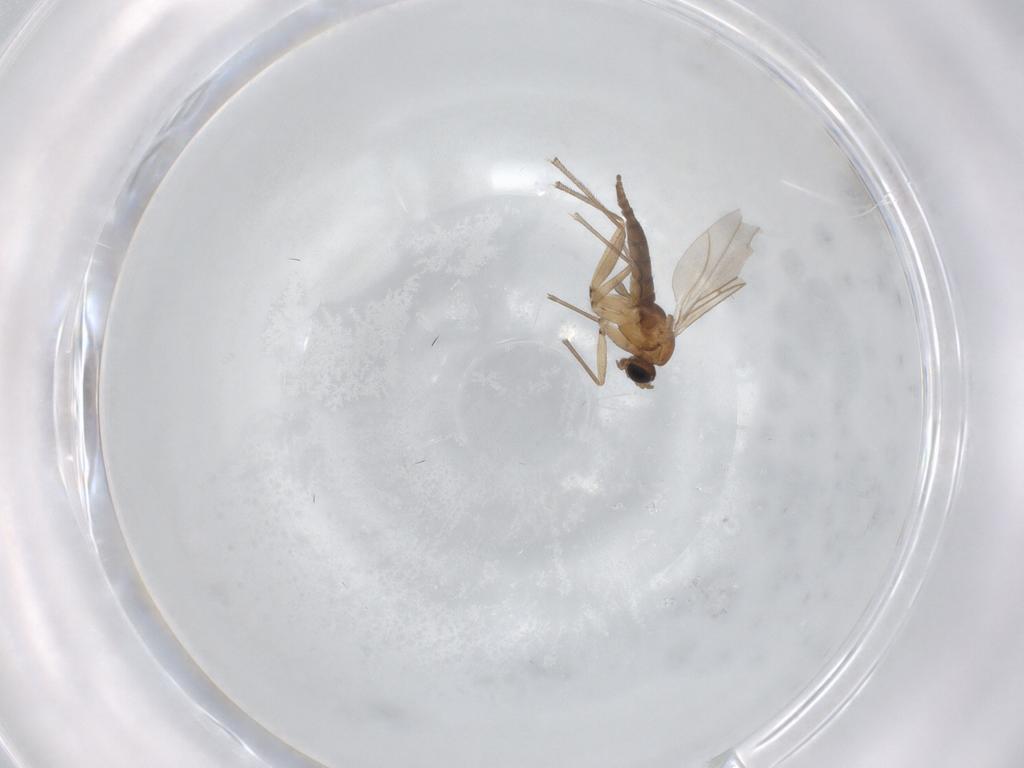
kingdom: Animalia
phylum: Arthropoda
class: Insecta
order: Diptera
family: Sciaridae
